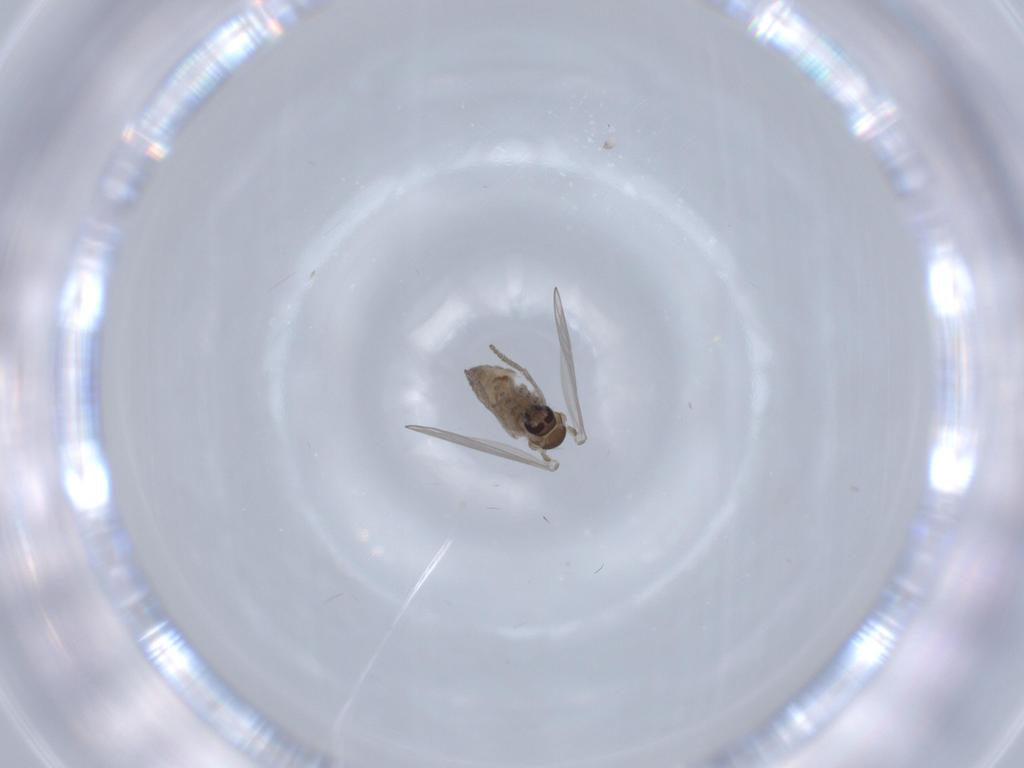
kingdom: Animalia
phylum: Arthropoda
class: Insecta
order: Diptera
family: Psychodidae
